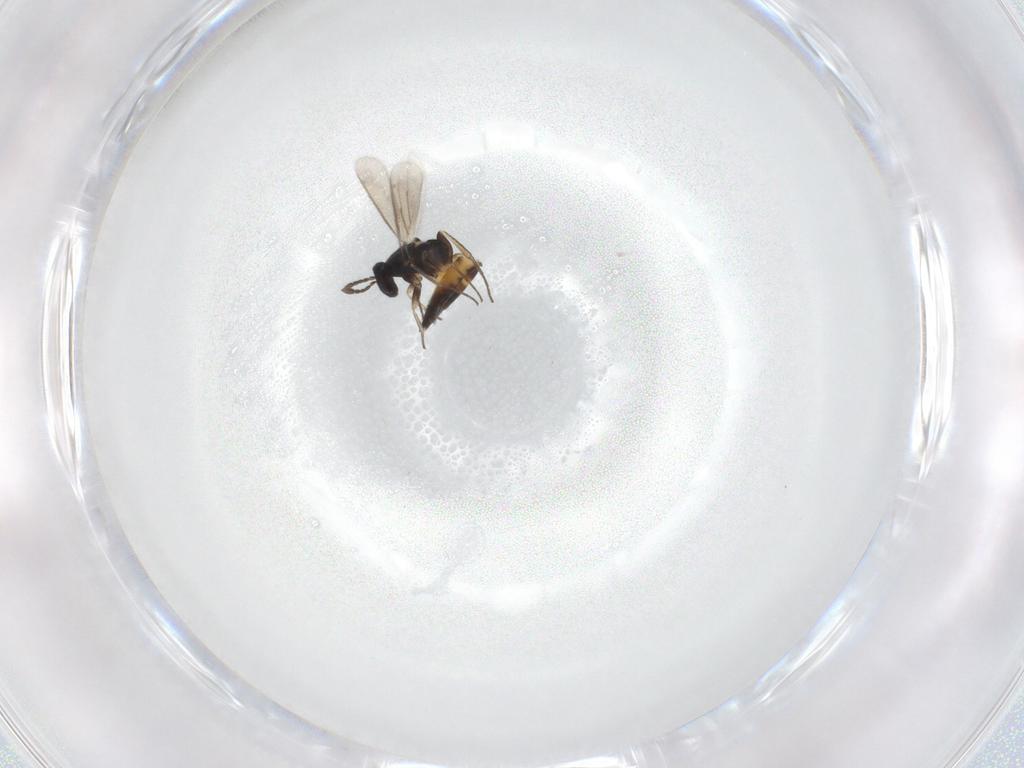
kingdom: Animalia
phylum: Arthropoda
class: Insecta
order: Hymenoptera
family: Eulophidae
